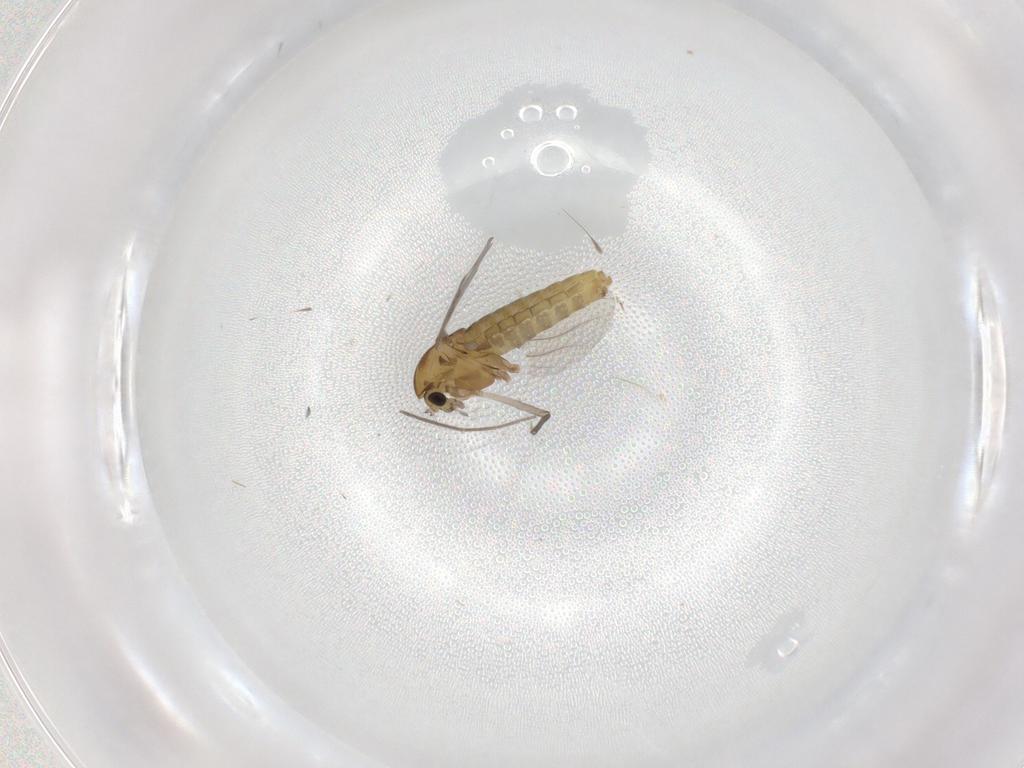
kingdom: Animalia
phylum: Arthropoda
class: Insecta
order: Diptera
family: Chironomidae
